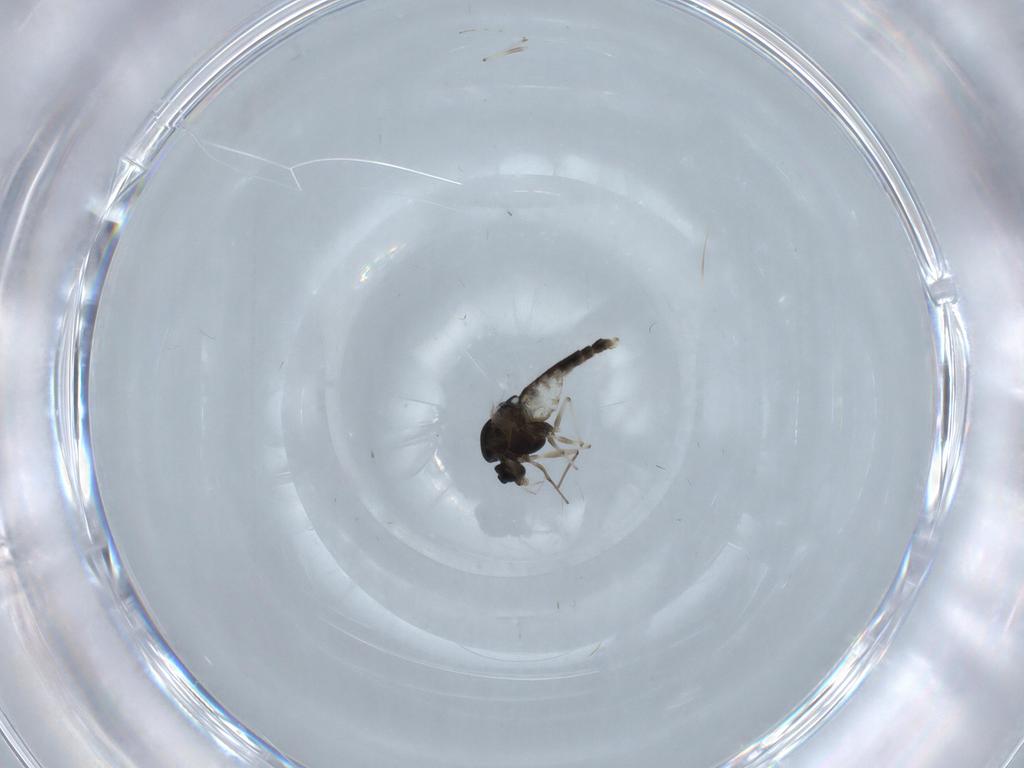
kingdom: Animalia
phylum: Arthropoda
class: Insecta
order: Diptera
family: Chironomidae
